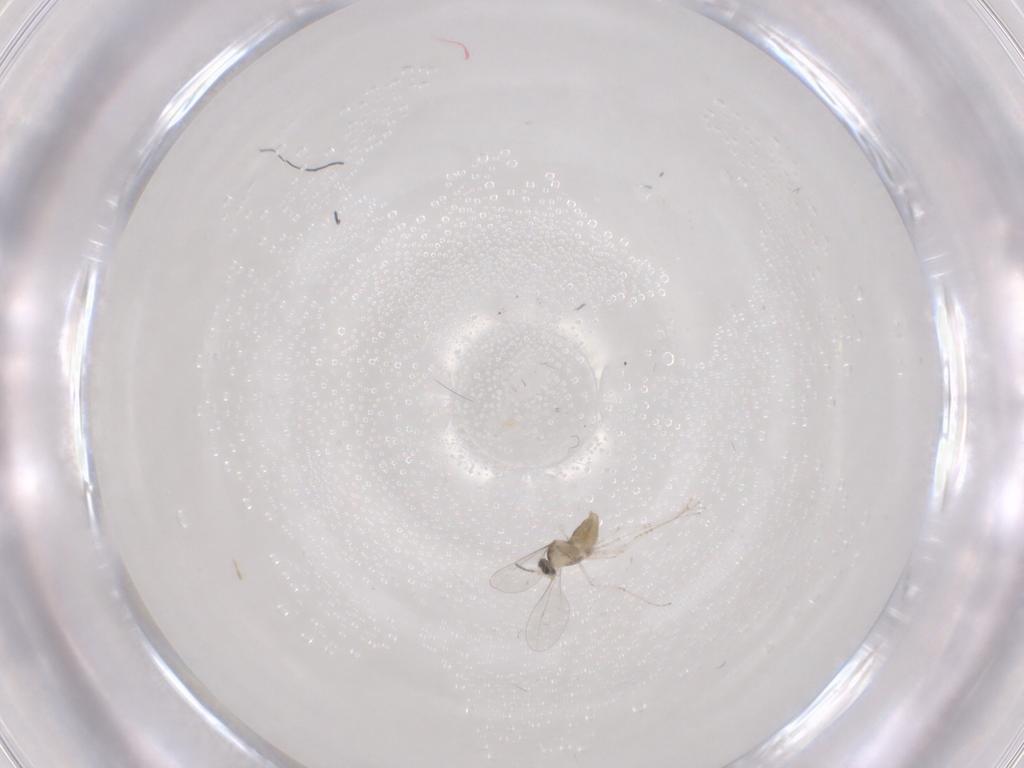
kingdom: Animalia
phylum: Arthropoda
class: Insecta
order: Diptera
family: Cecidomyiidae
